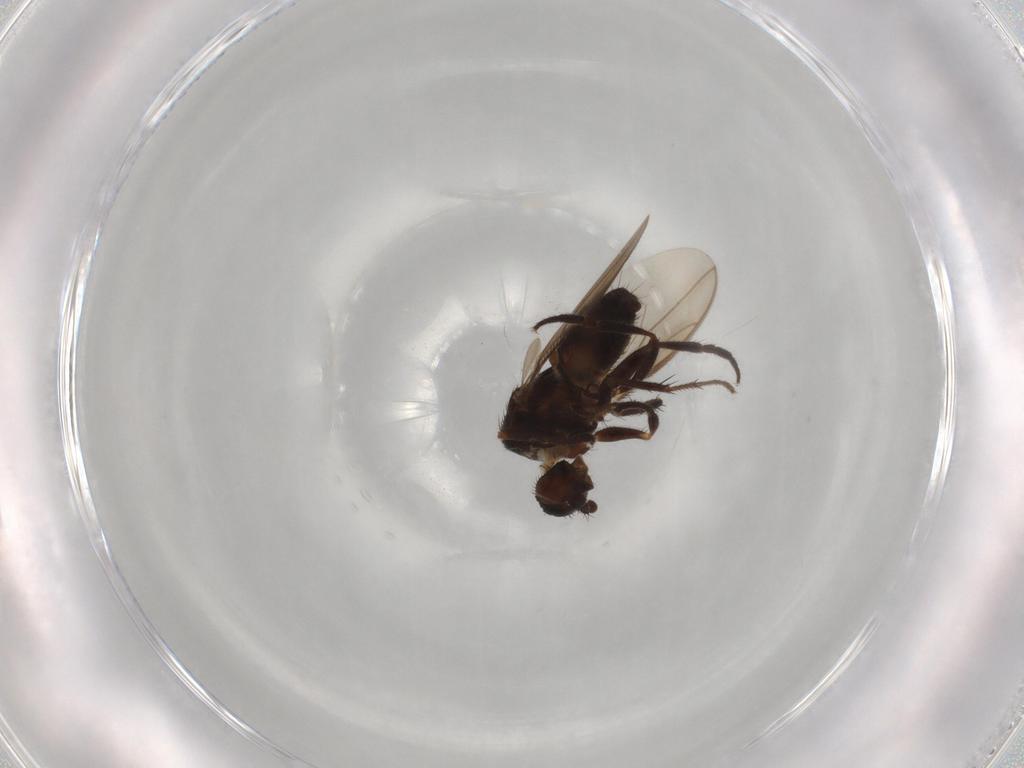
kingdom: Animalia
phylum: Arthropoda
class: Insecta
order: Diptera
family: Sphaeroceridae
